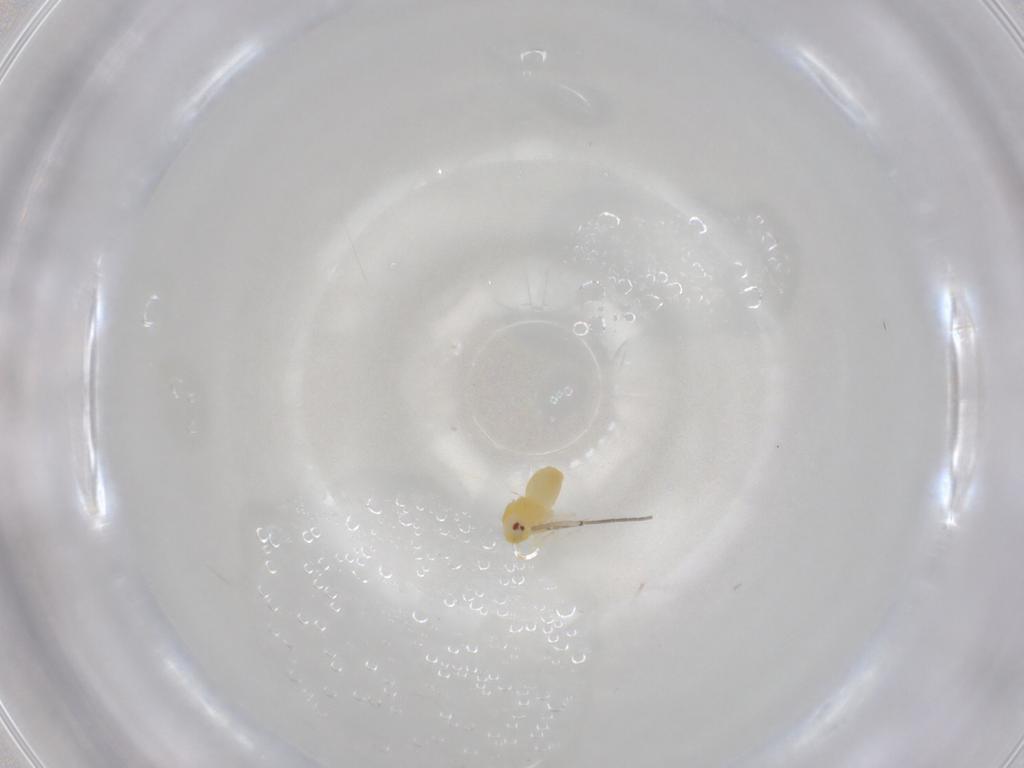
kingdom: Animalia
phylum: Arthropoda
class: Insecta
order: Hemiptera
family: Aleyrodidae
